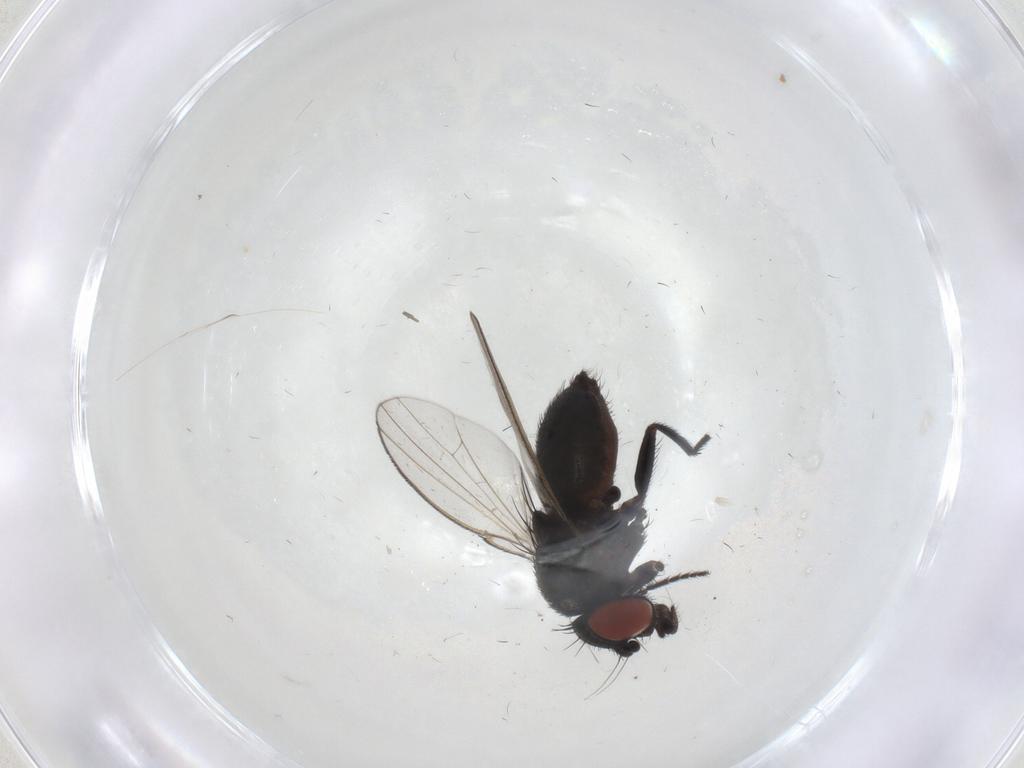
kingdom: Animalia
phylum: Arthropoda
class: Insecta
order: Diptera
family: Milichiidae
